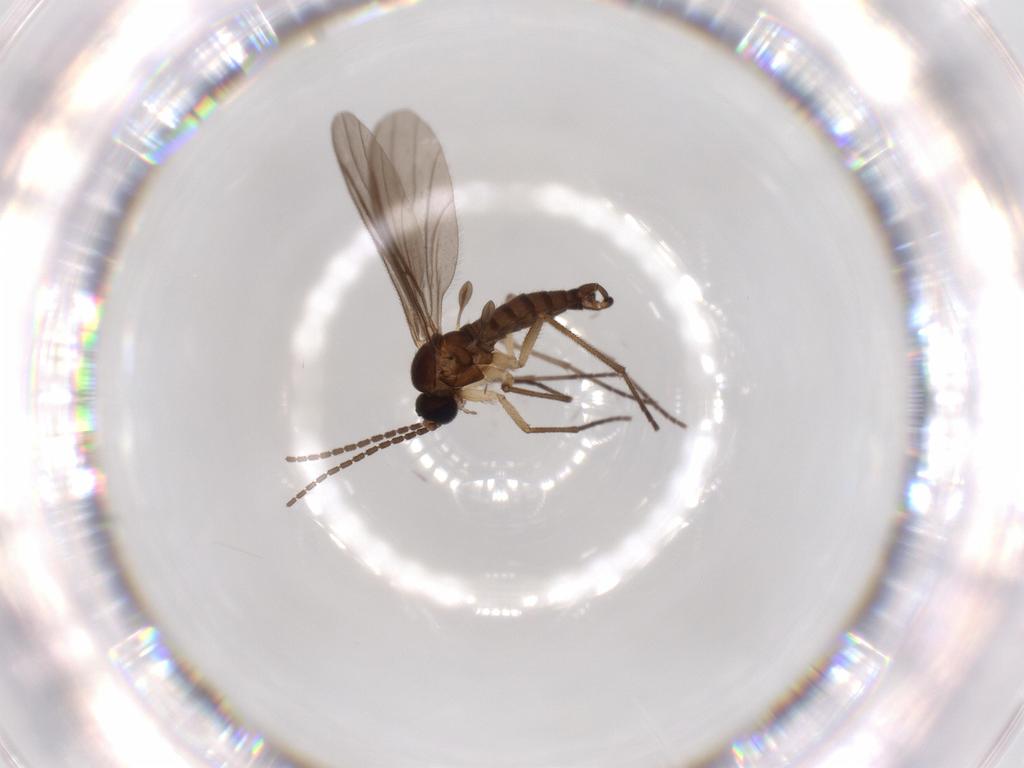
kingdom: Animalia
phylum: Arthropoda
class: Insecta
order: Diptera
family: Sciaridae
